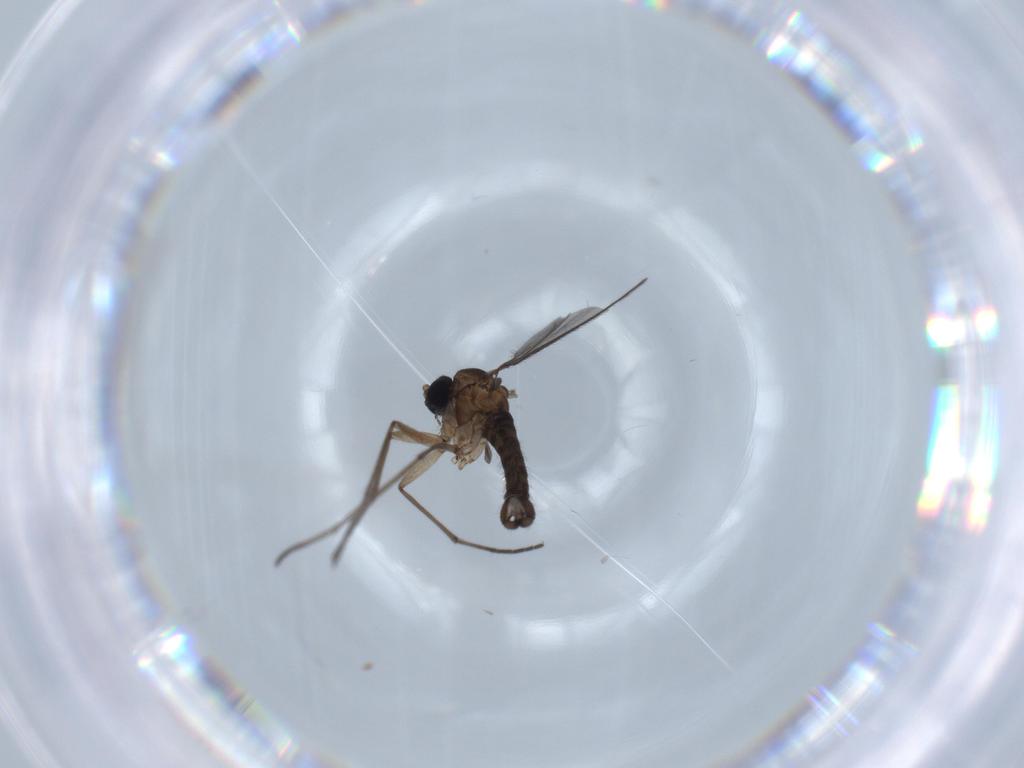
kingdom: Animalia
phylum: Arthropoda
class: Insecta
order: Diptera
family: Sciaridae
